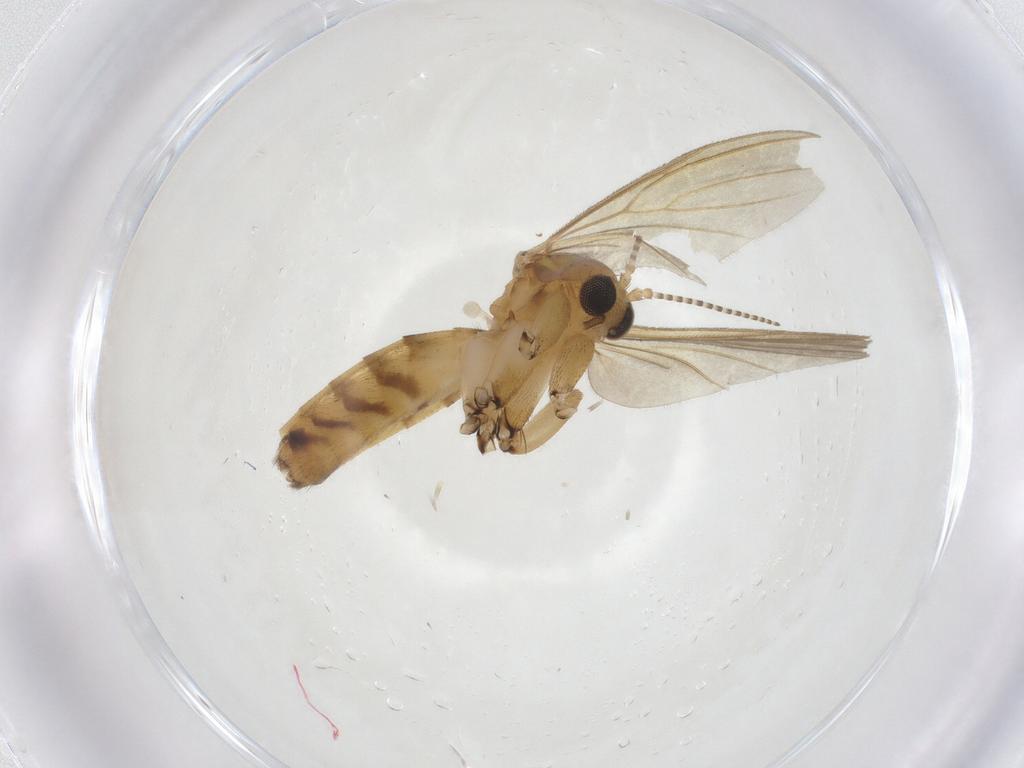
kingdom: Animalia
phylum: Arthropoda
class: Insecta
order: Diptera
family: Mycetophilidae
